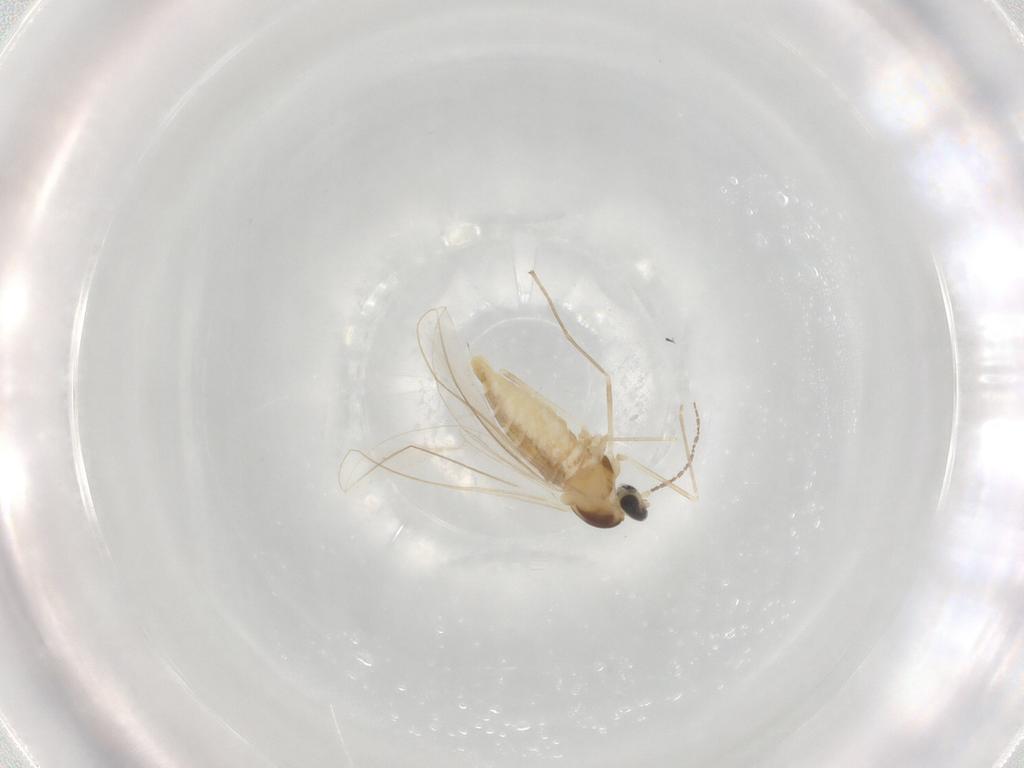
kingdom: Animalia
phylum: Arthropoda
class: Insecta
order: Diptera
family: Cecidomyiidae
